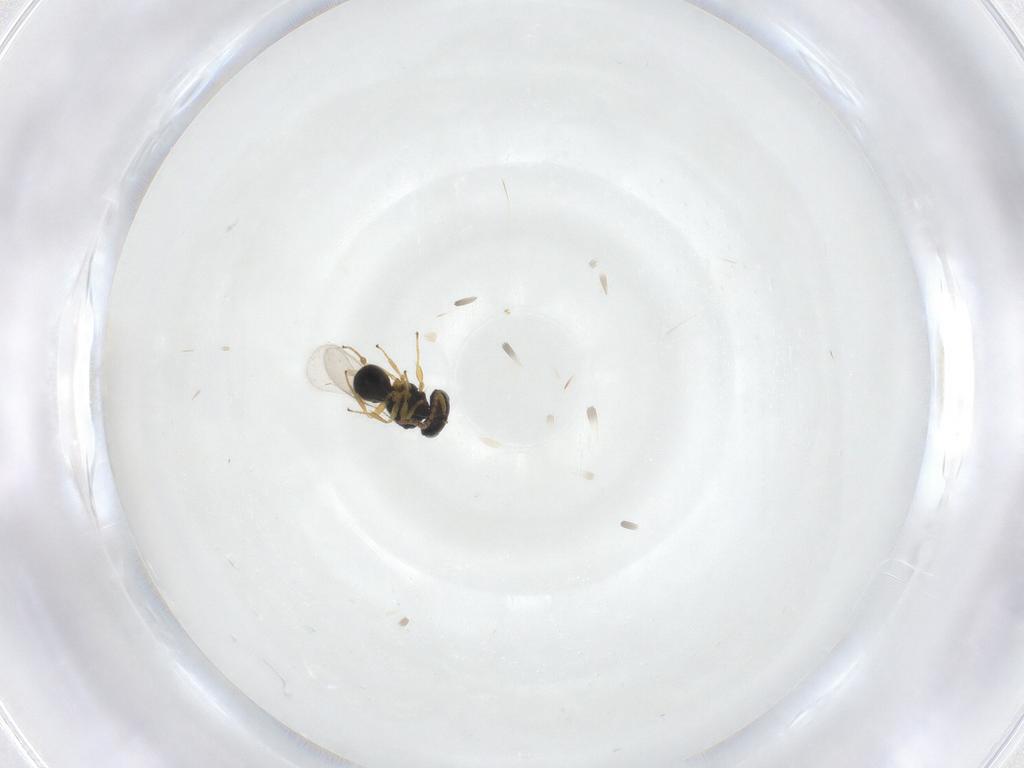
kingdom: Animalia
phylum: Arthropoda
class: Insecta
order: Hymenoptera
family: Scelionidae
